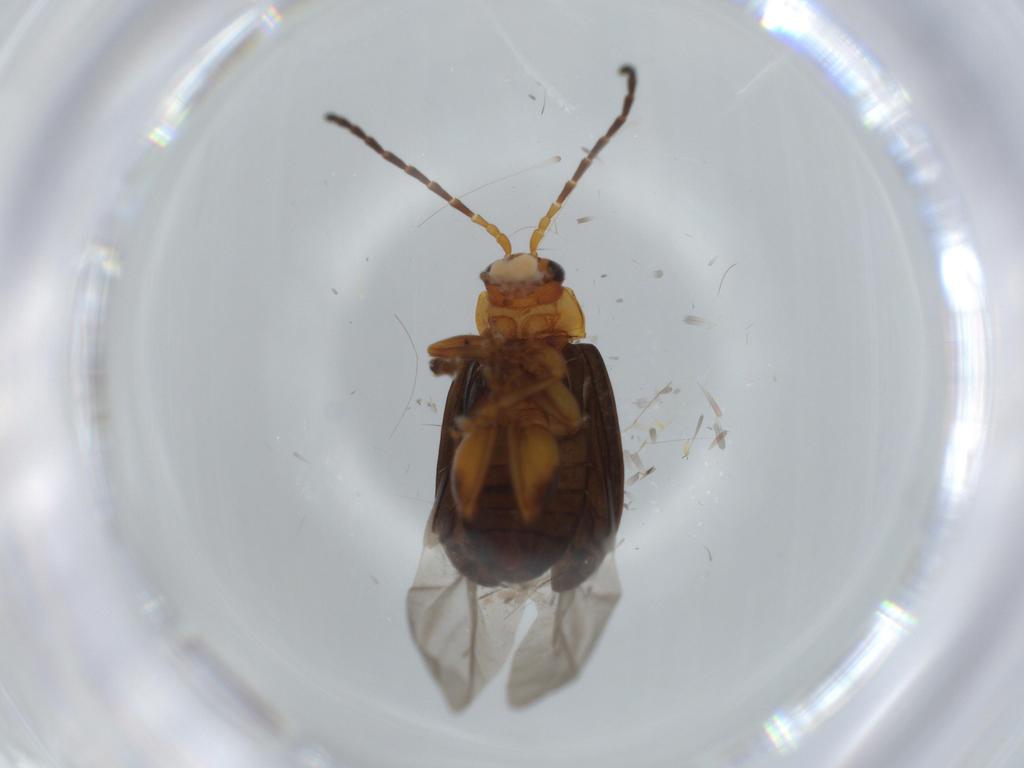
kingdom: Animalia
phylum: Arthropoda
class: Insecta
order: Coleoptera
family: Chrysomelidae
